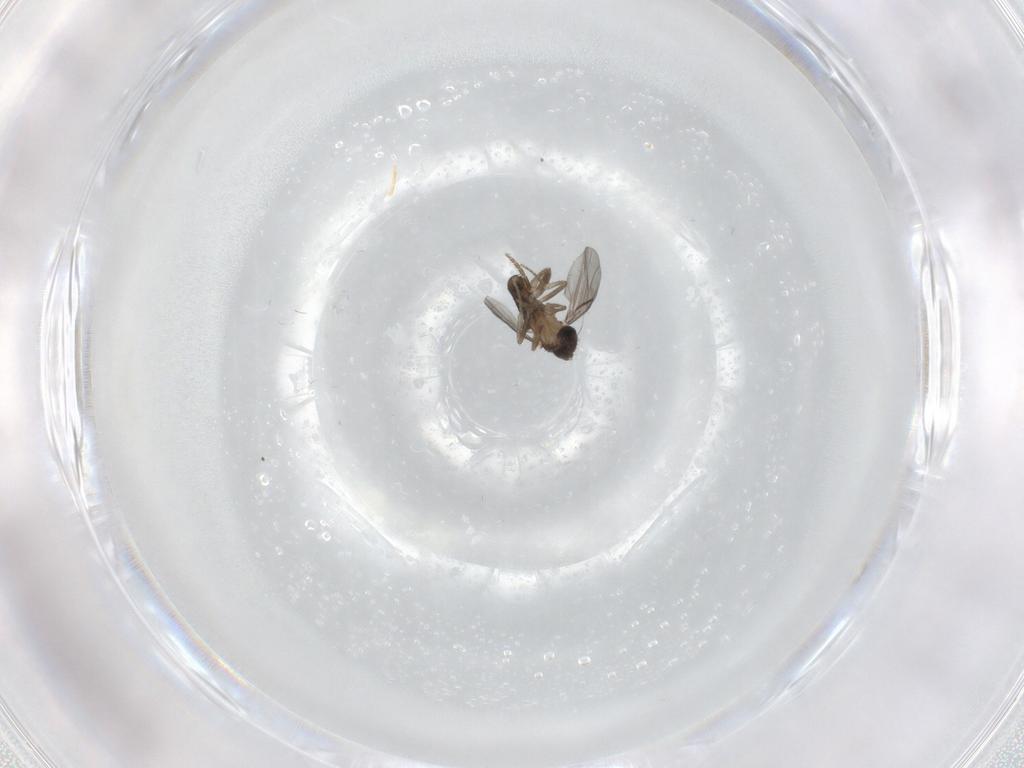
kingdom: Animalia
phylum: Arthropoda
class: Insecta
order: Diptera
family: Phoridae
